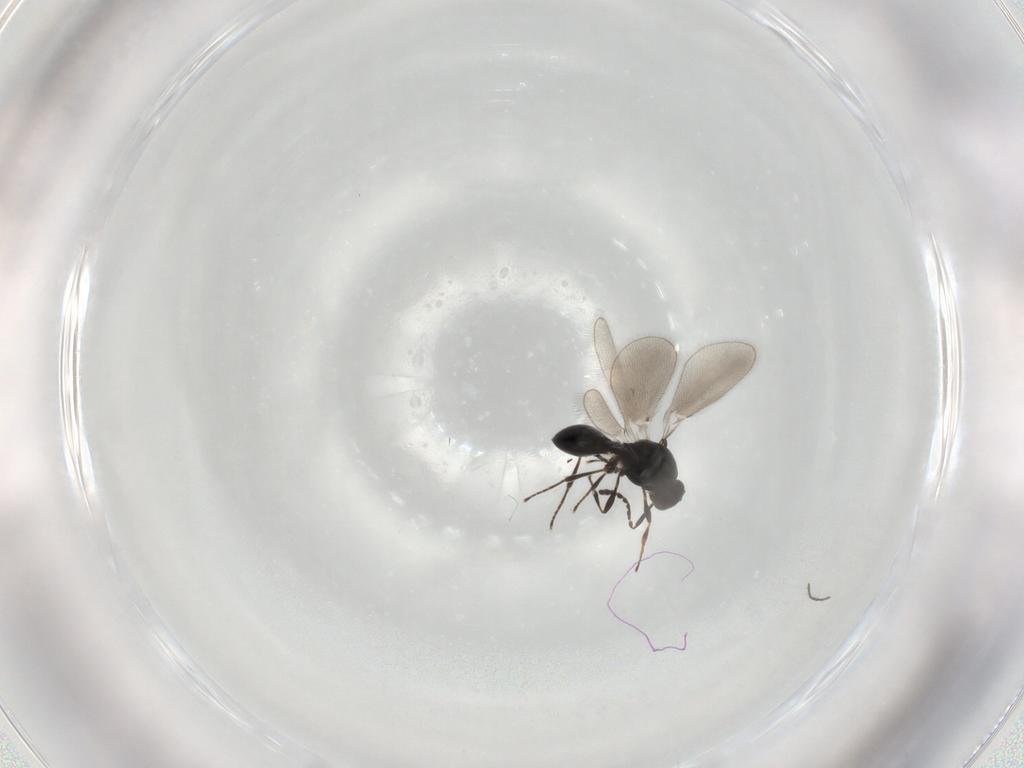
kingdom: Animalia
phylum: Arthropoda
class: Insecta
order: Hymenoptera
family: Platygastridae
